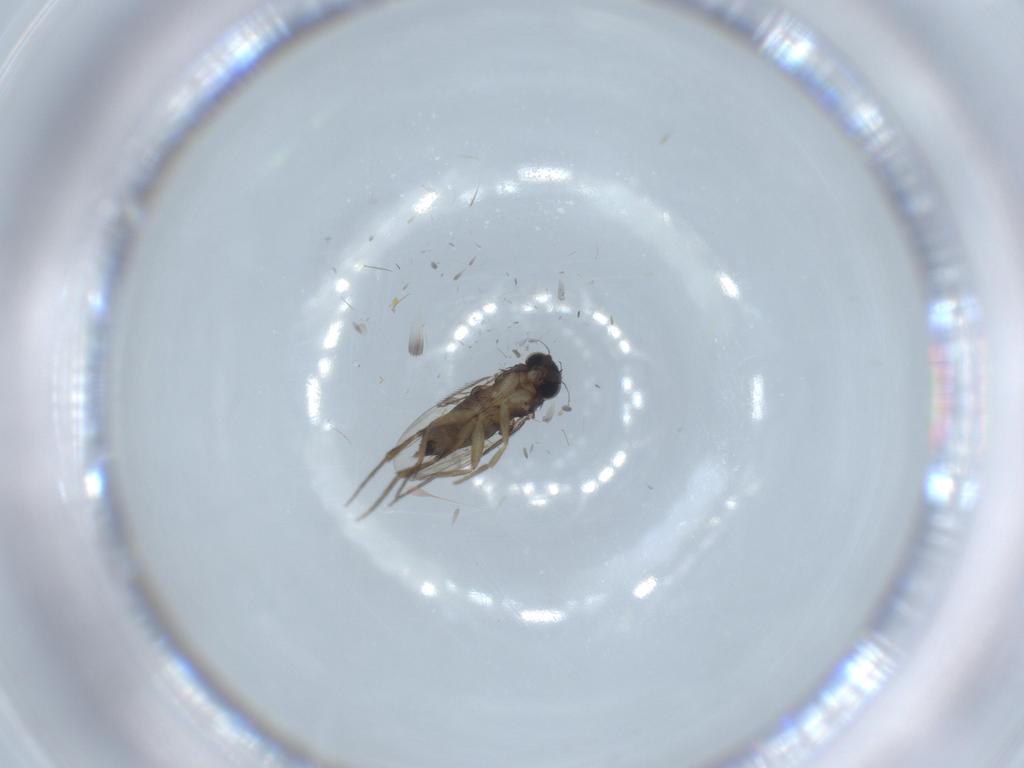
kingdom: Animalia
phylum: Arthropoda
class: Insecta
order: Diptera
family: Phoridae
